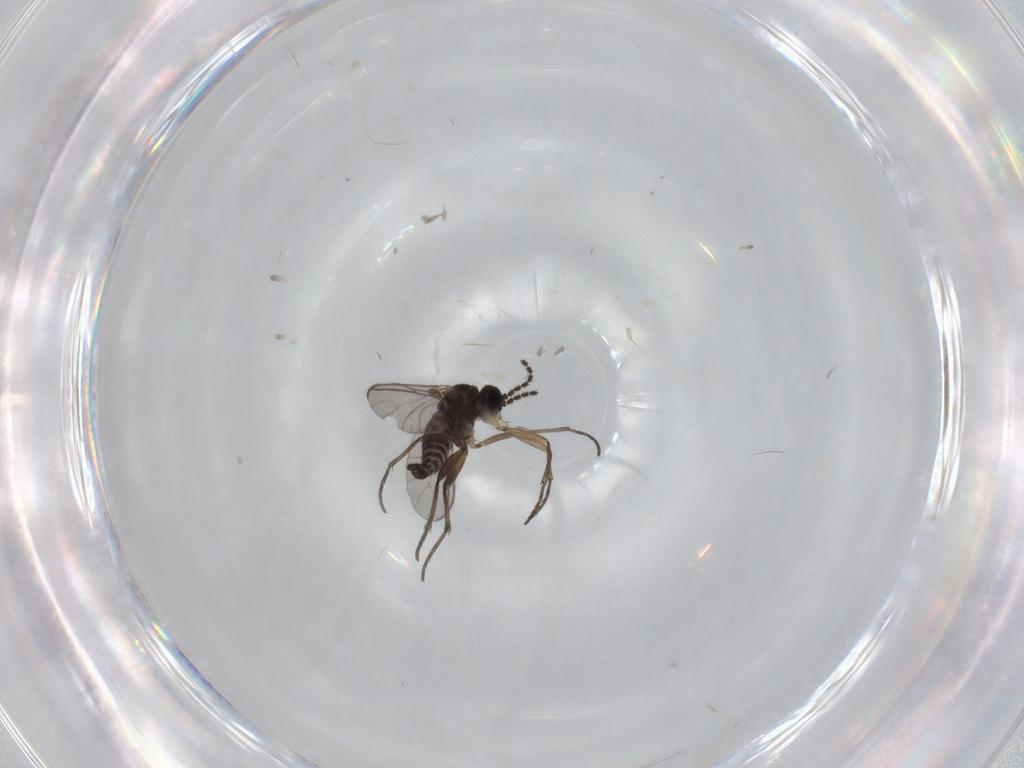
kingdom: Animalia
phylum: Arthropoda
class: Insecta
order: Diptera
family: Sciaridae
